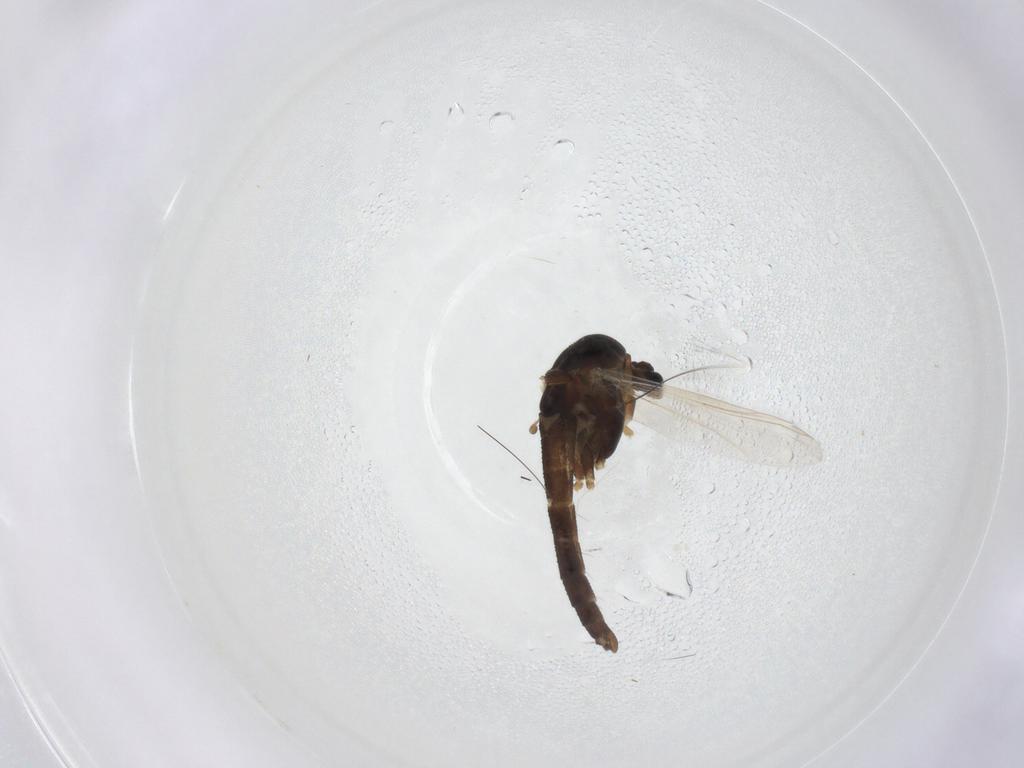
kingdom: Animalia
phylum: Arthropoda
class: Insecta
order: Diptera
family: Chironomidae
